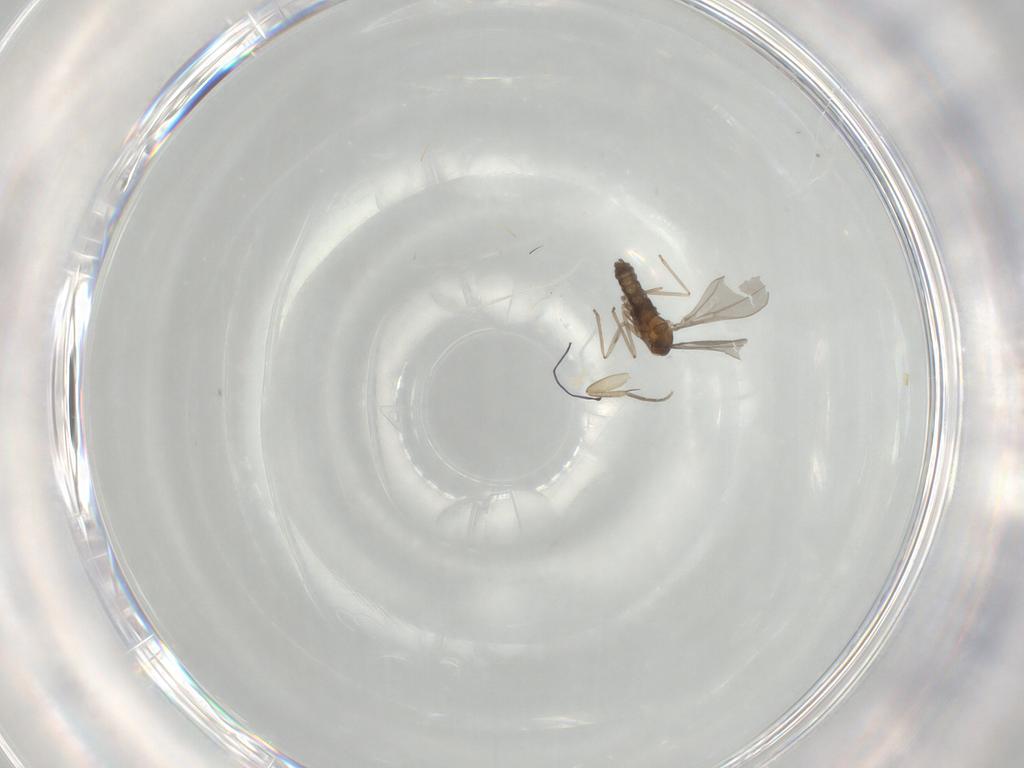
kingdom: Animalia
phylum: Arthropoda
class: Insecta
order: Diptera
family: Phoridae
